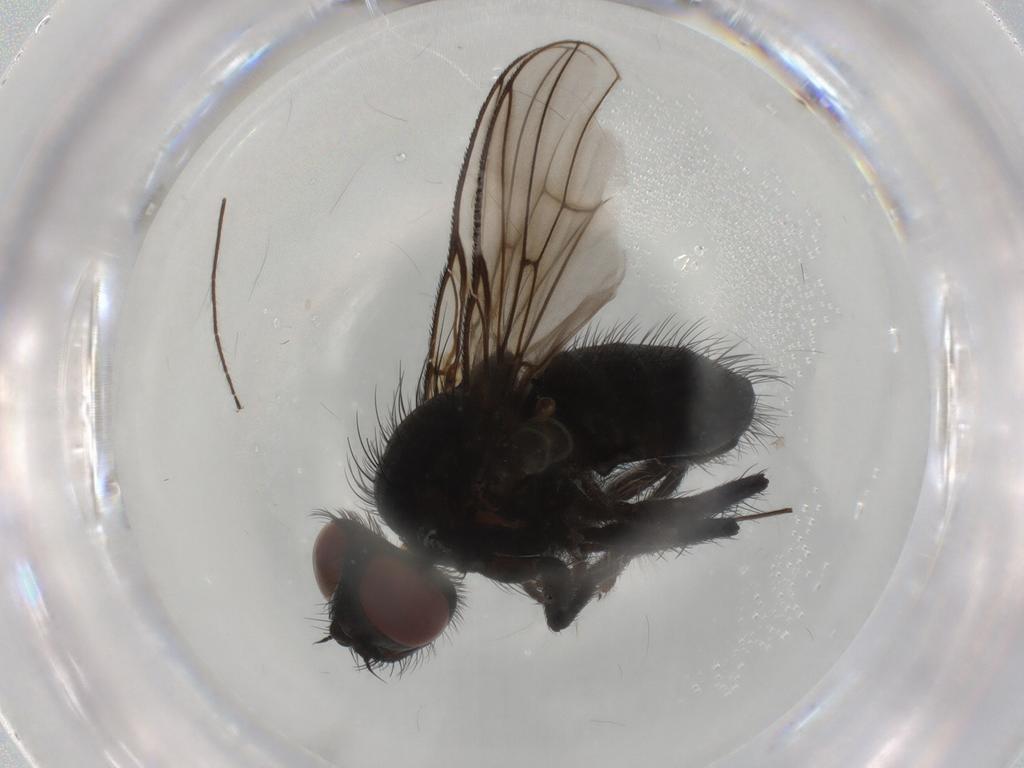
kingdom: Animalia
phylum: Arthropoda
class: Insecta
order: Diptera
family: Muscidae
